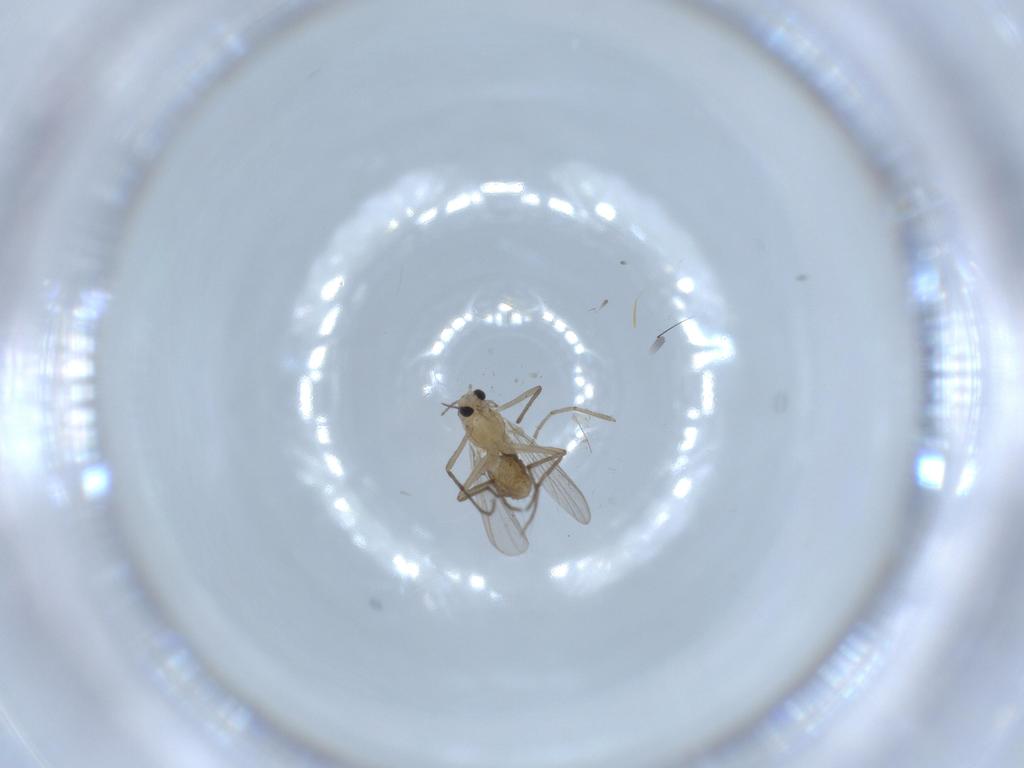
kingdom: Animalia
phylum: Arthropoda
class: Insecta
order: Diptera
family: Chironomidae
